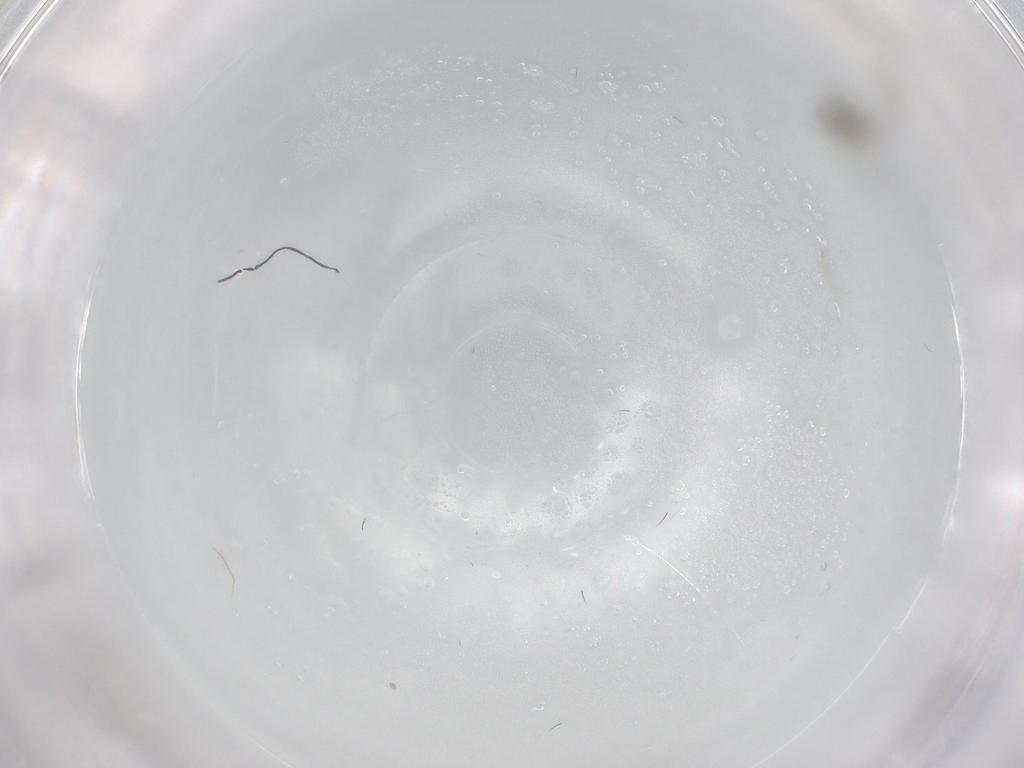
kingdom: Animalia
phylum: Arthropoda
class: Insecta
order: Diptera
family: Cecidomyiidae
